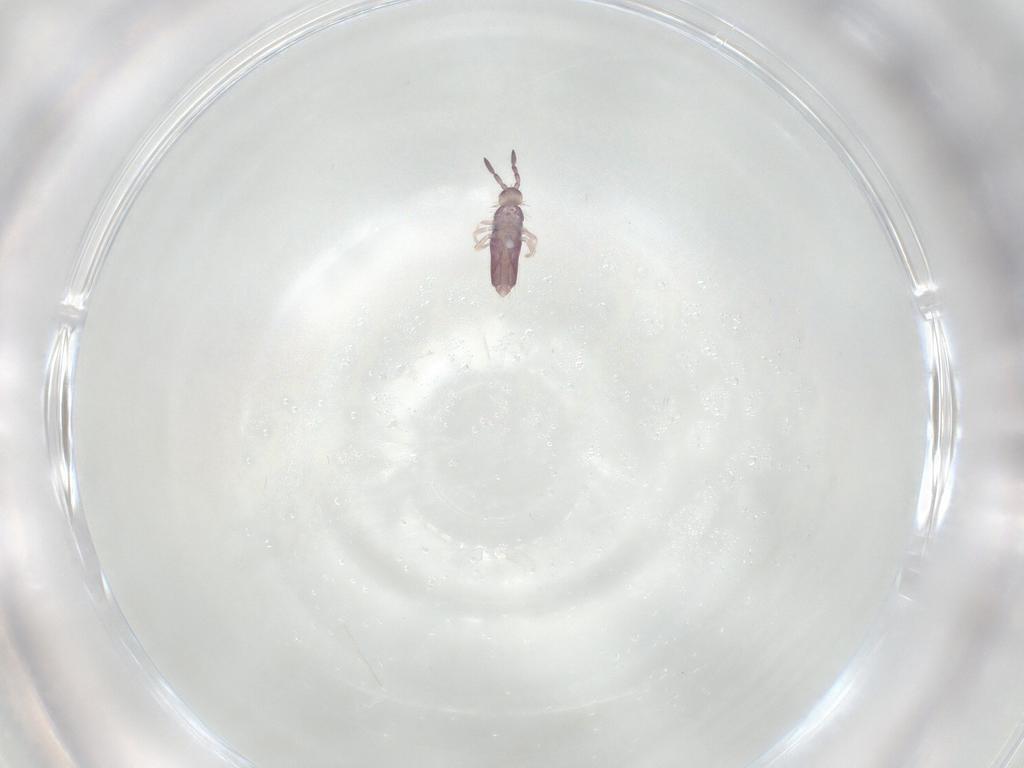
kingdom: Animalia
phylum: Arthropoda
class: Collembola
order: Entomobryomorpha
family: Entomobryidae
